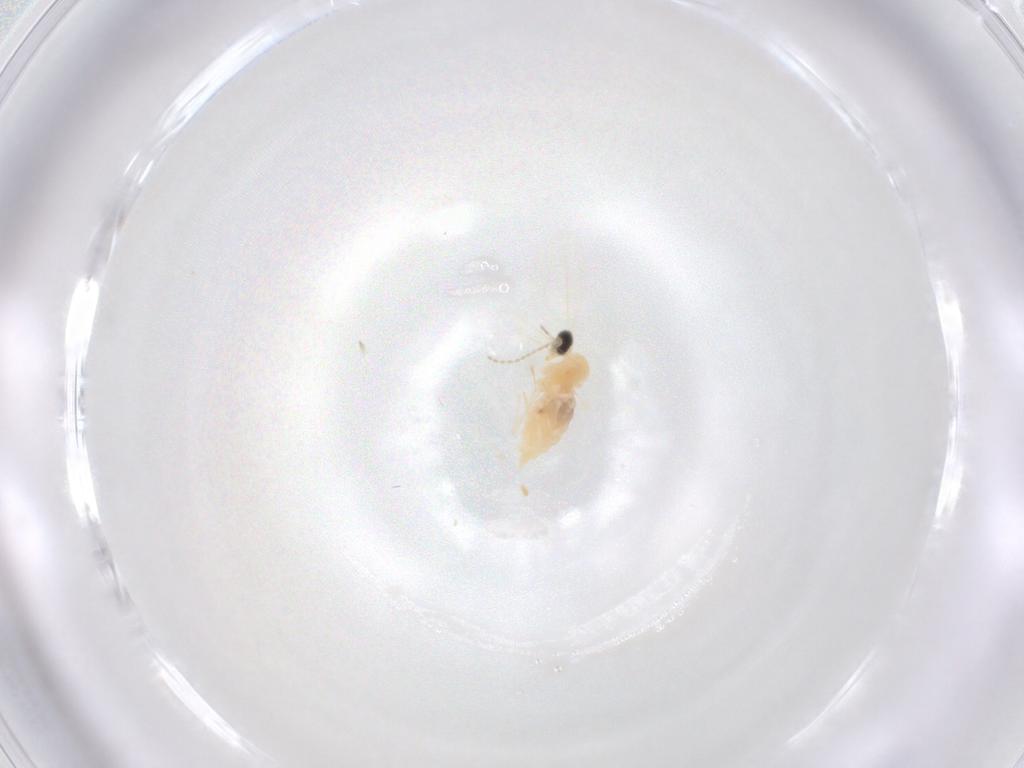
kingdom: Animalia
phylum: Arthropoda
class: Insecta
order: Diptera
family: Cecidomyiidae
